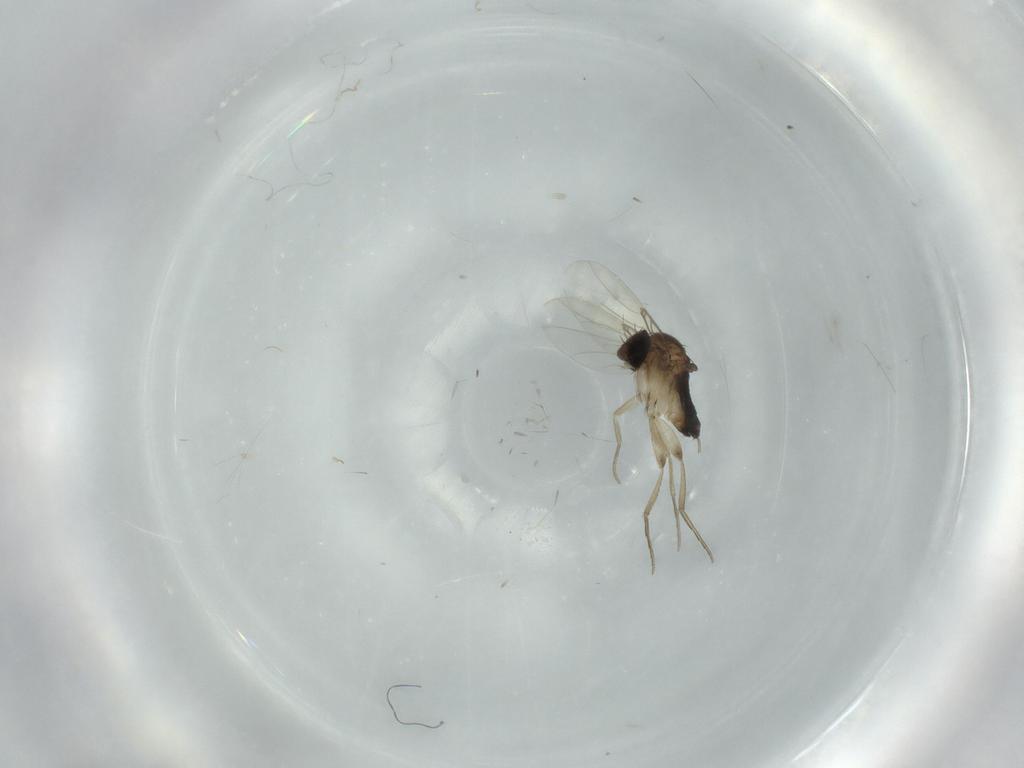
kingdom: Animalia
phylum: Arthropoda
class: Insecta
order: Diptera
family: Phoridae
